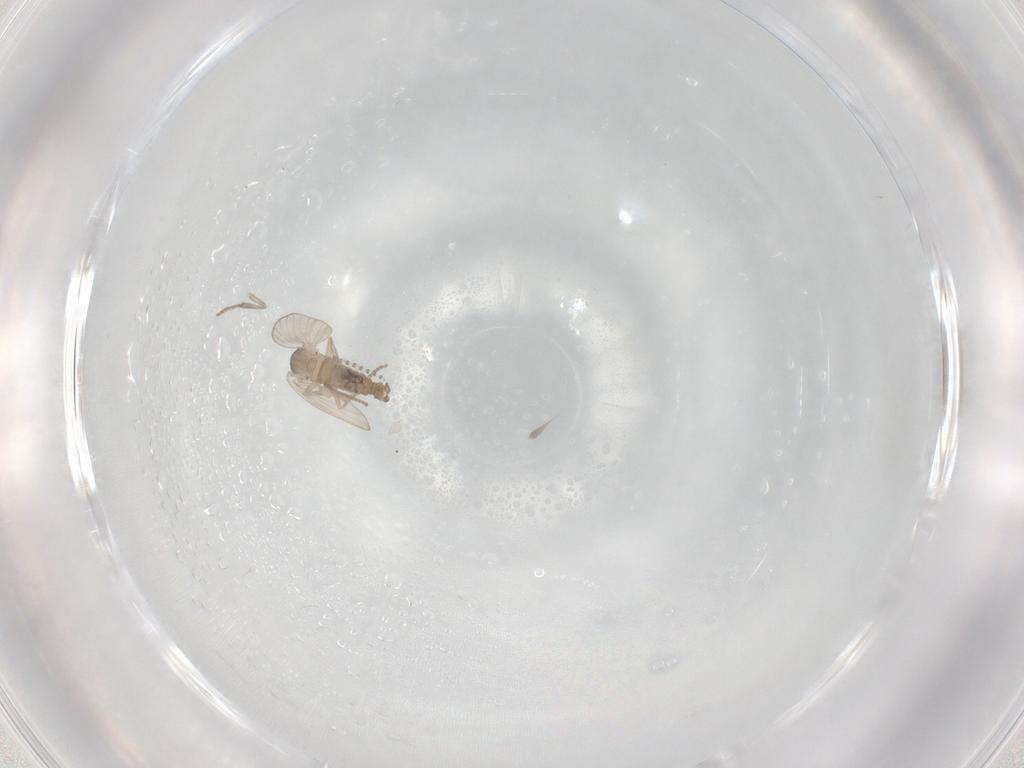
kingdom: Animalia
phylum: Arthropoda
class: Insecta
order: Diptera
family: Psychodidae
